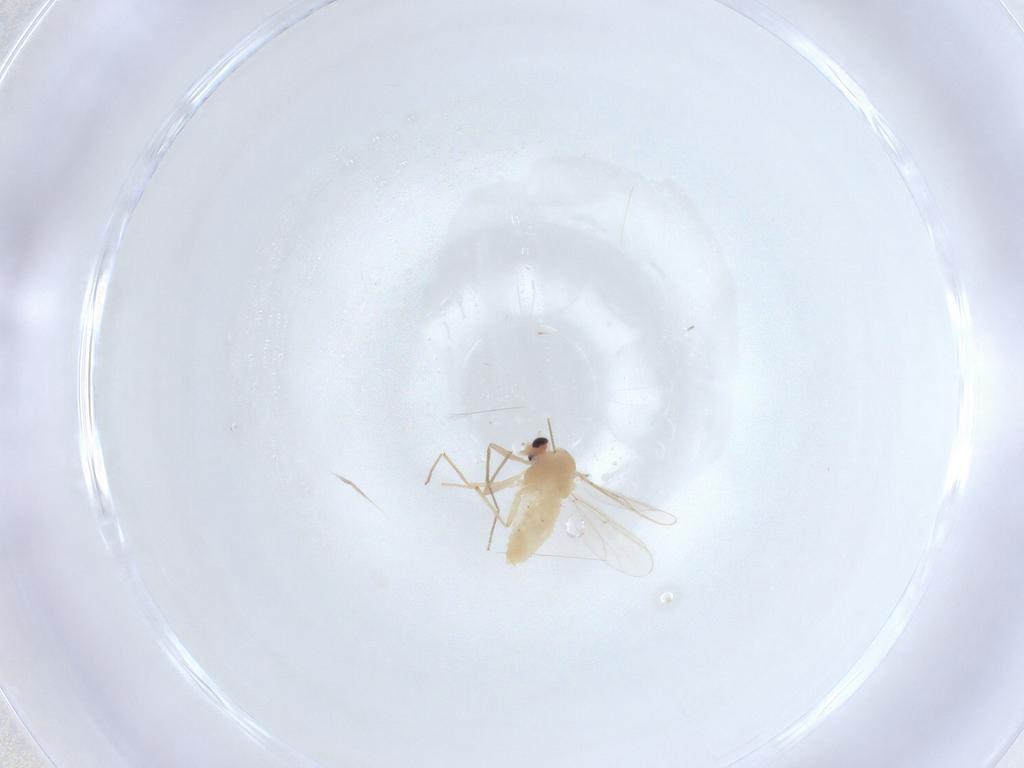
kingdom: Animalia
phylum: Arthropoda
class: Insecta
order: Diptera
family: Chironomidae
